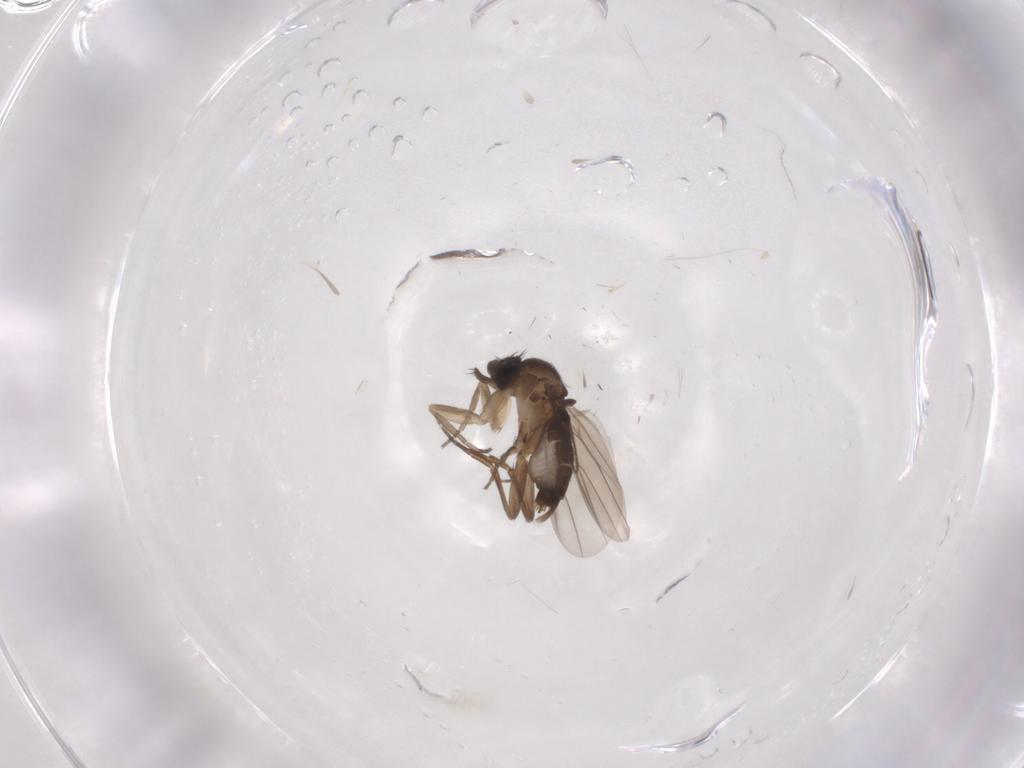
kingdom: Animalia
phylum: Arthropoda
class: Insecta
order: Diptera
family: Phoridae
